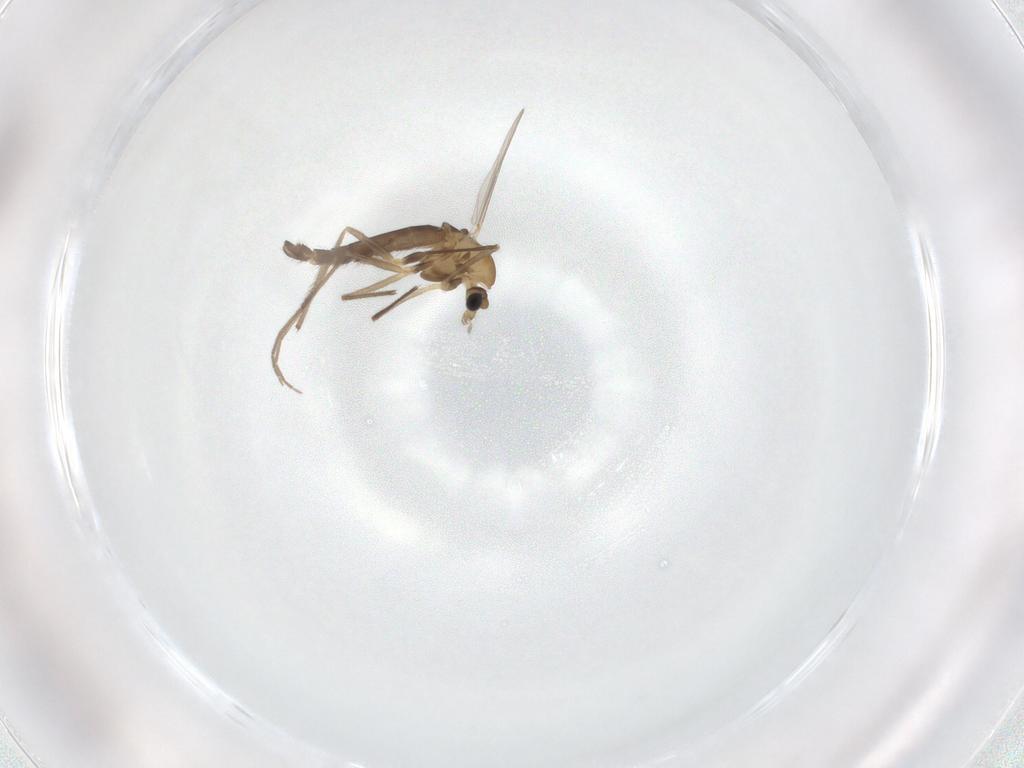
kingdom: Animalia
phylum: Arthropoda
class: Insecta
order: Diptera
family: Chironomidae
